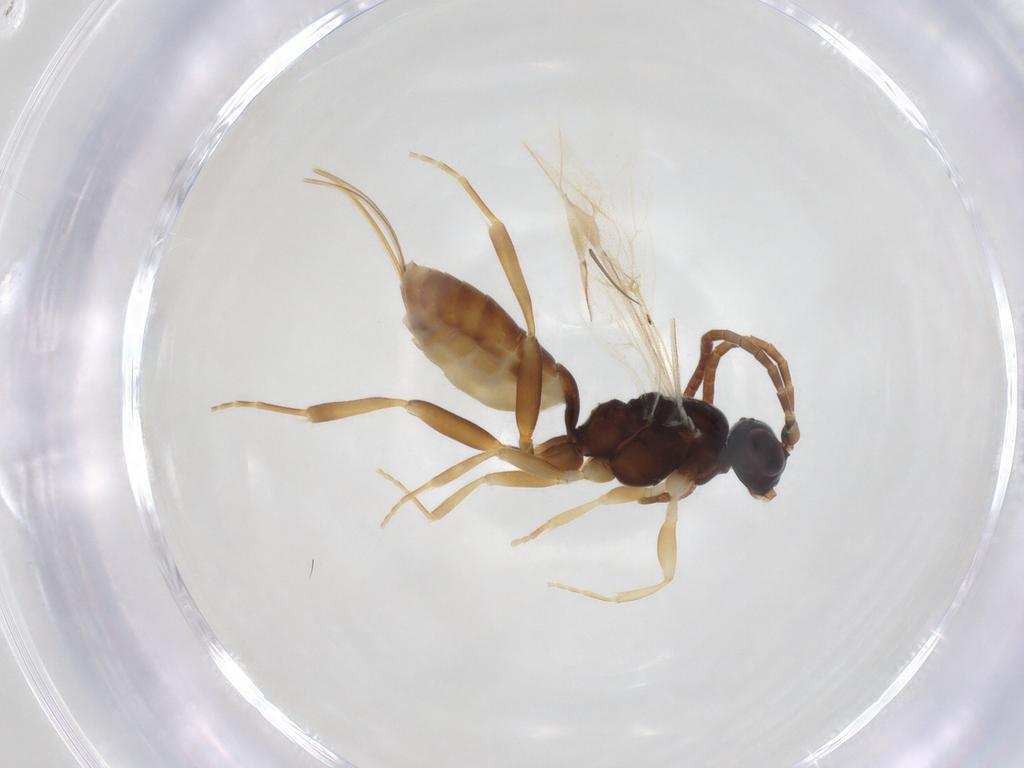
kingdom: Animalia
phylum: Arthropoda
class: Insecta
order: Hymenoptera
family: Ichneumonidae
